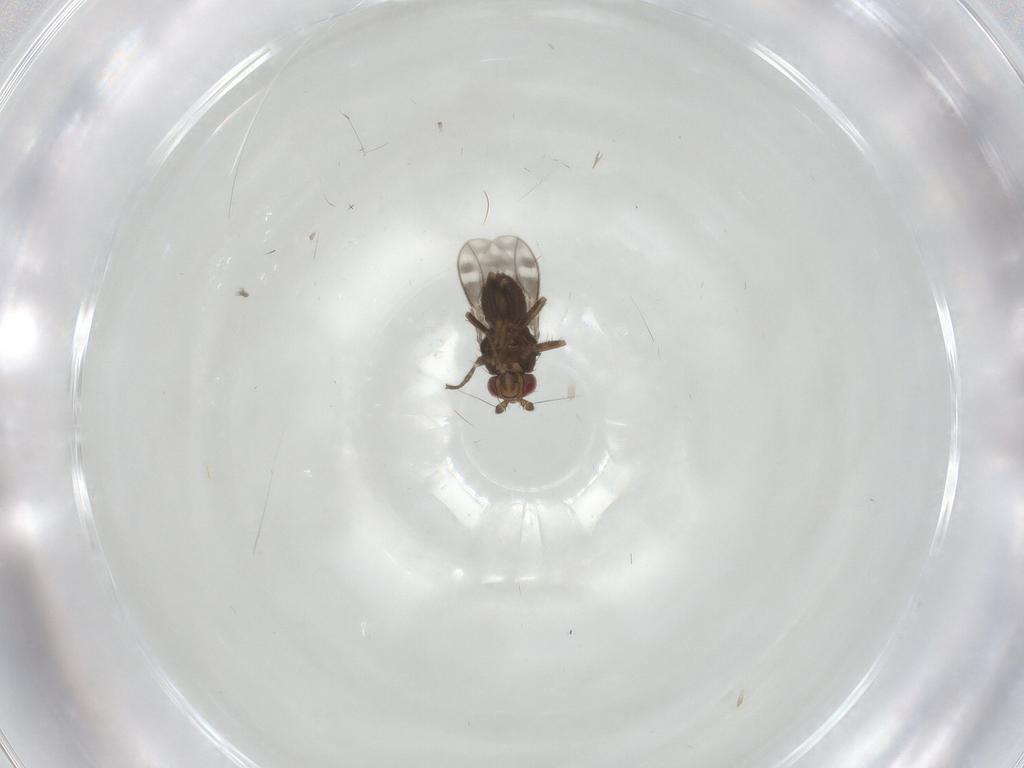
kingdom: Animalia
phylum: Arthropoda
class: Insecta
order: Diptera
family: Sphaeroceridae
